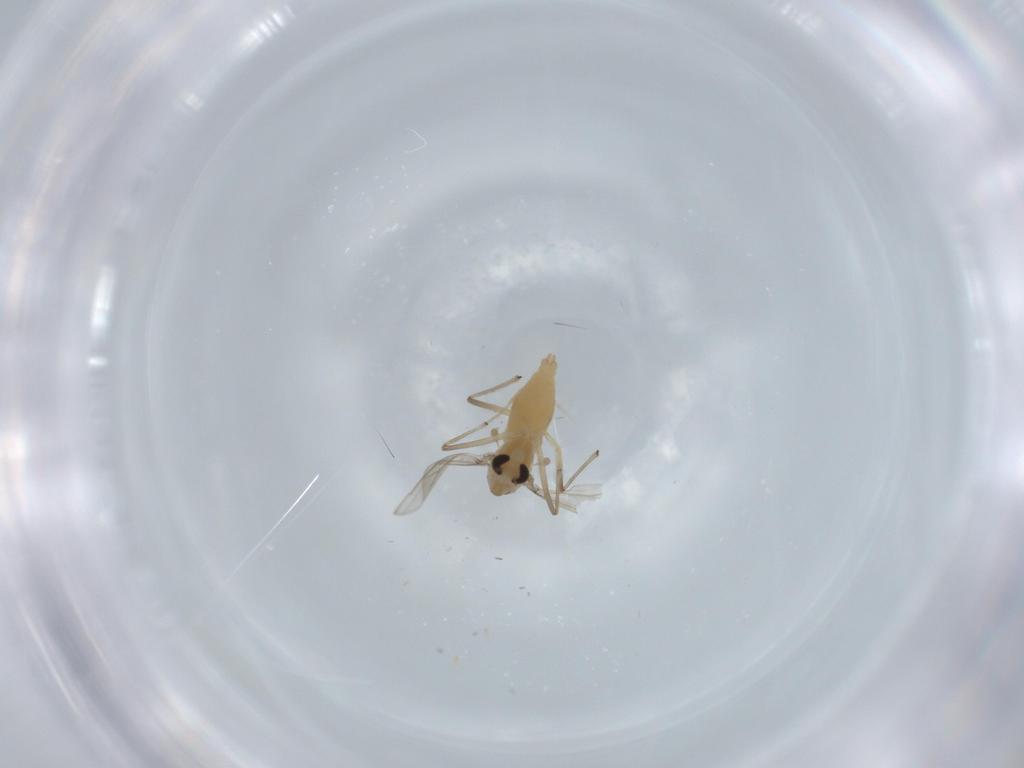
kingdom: Animalia
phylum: Arthropoda
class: Insecta
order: Diptera
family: Chironomidae
